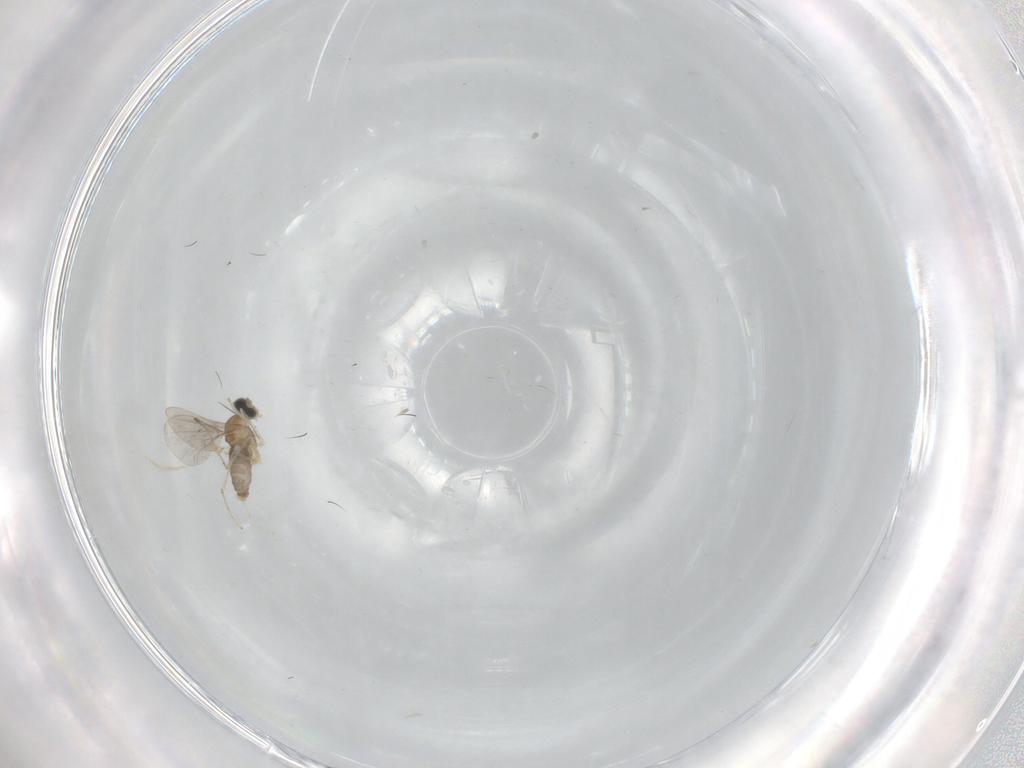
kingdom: Animalia
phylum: Arthropoda
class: Insecta
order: Diptera
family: Cecidomyiidae
